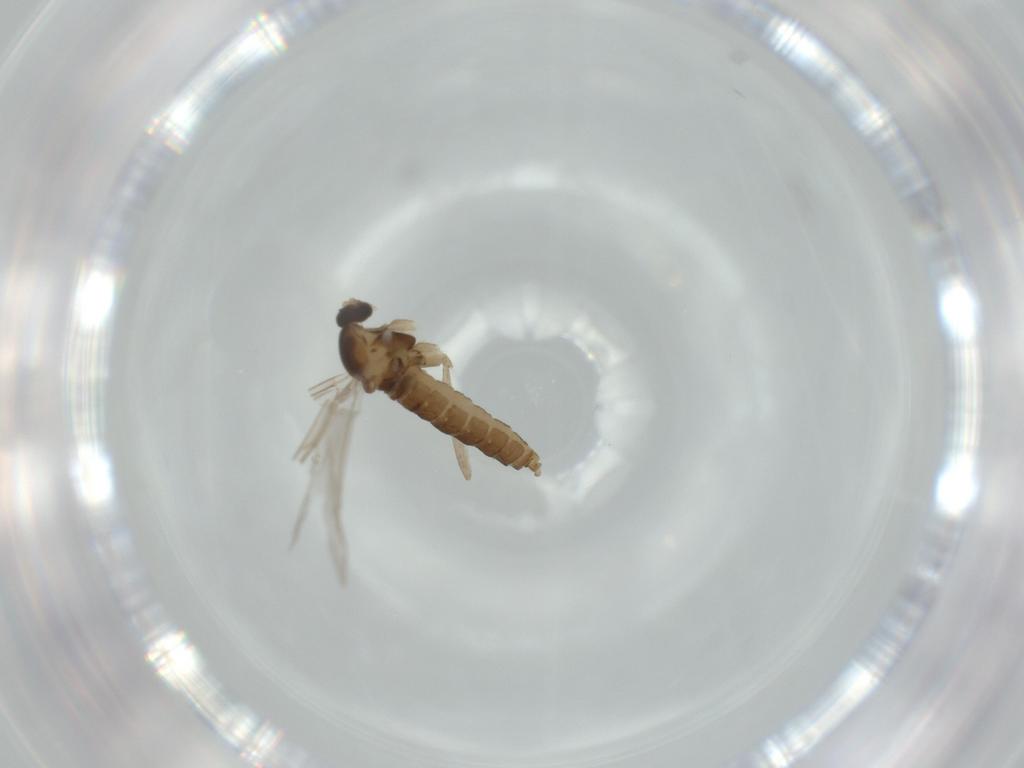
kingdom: Animalia
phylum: Arthropoda
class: Insecta
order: Diptera
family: Cecidomyiidae
